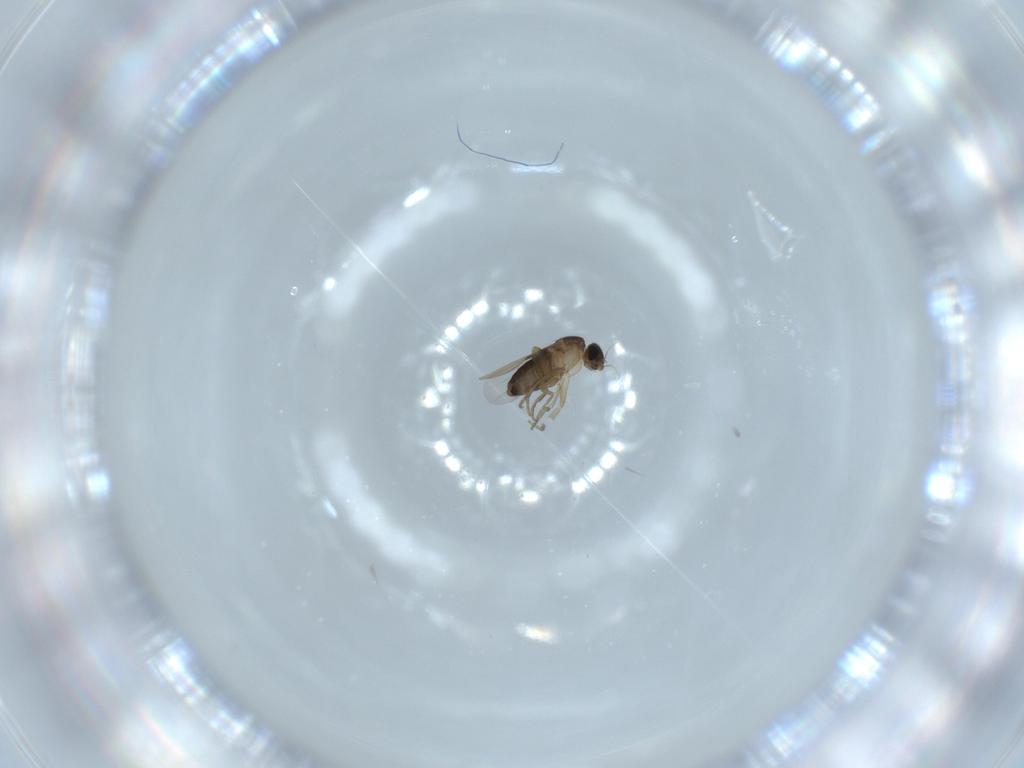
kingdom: Animalia
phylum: Arthropoda
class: Insecta
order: Diptera
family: Phoridae
